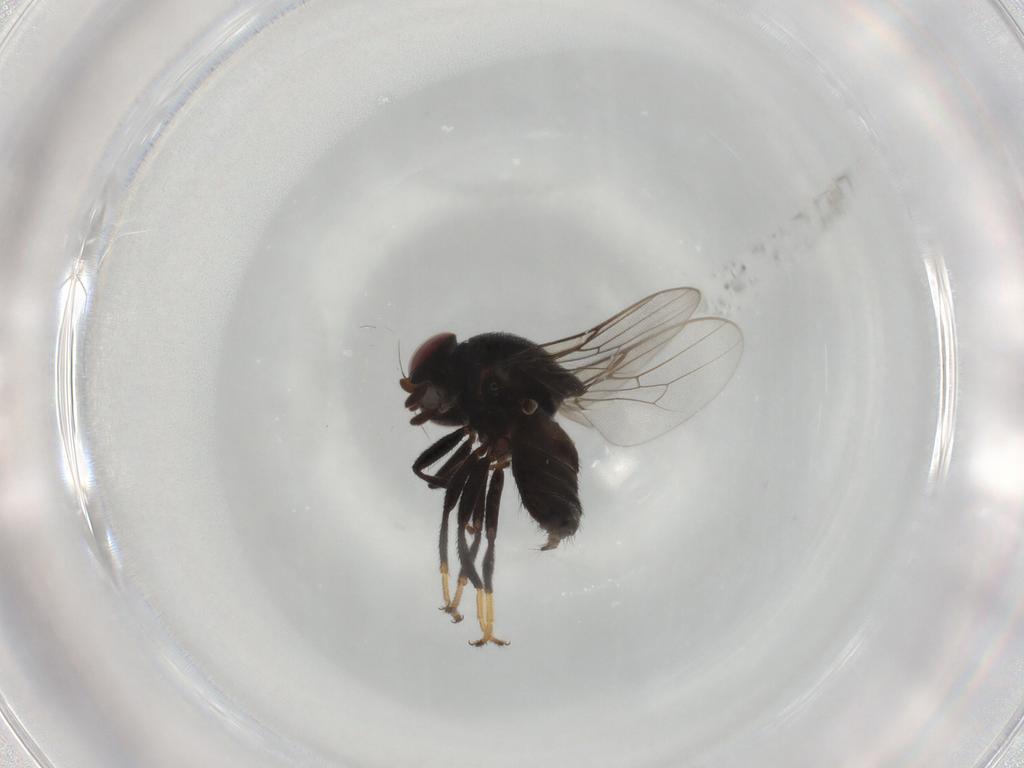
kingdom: Animalia
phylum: Arthropoda
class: Insecta
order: Diptera
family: Chloropidae
